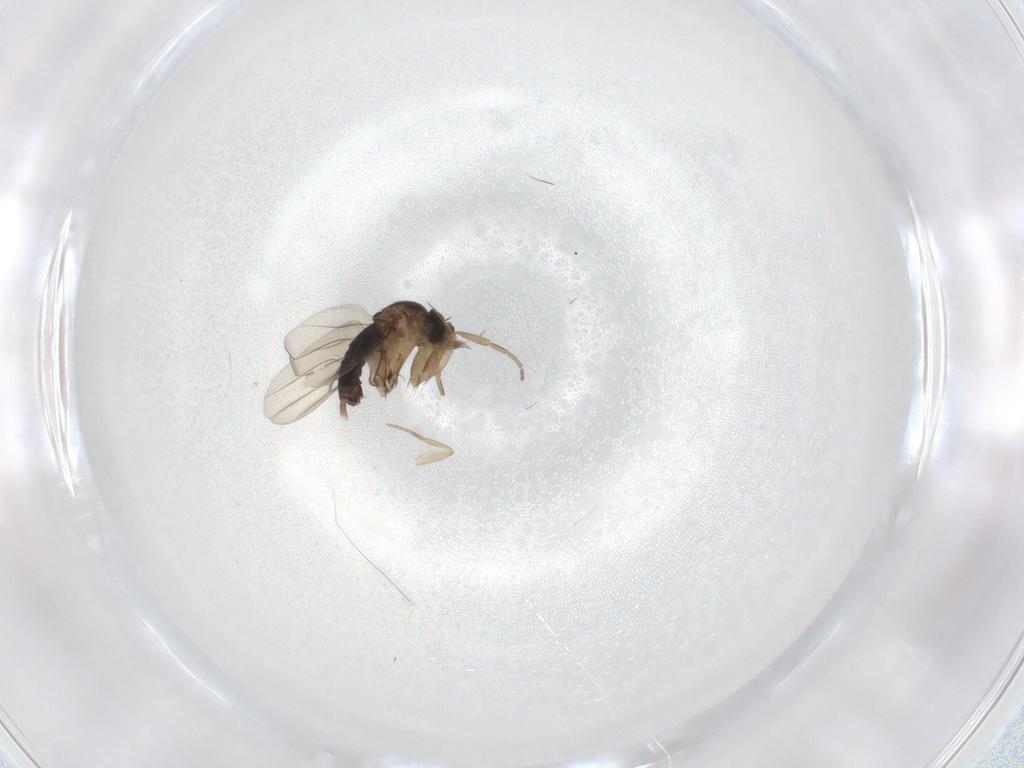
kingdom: Animalia
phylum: Arthropoda
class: Insecta
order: Diptera
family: Phoridae
